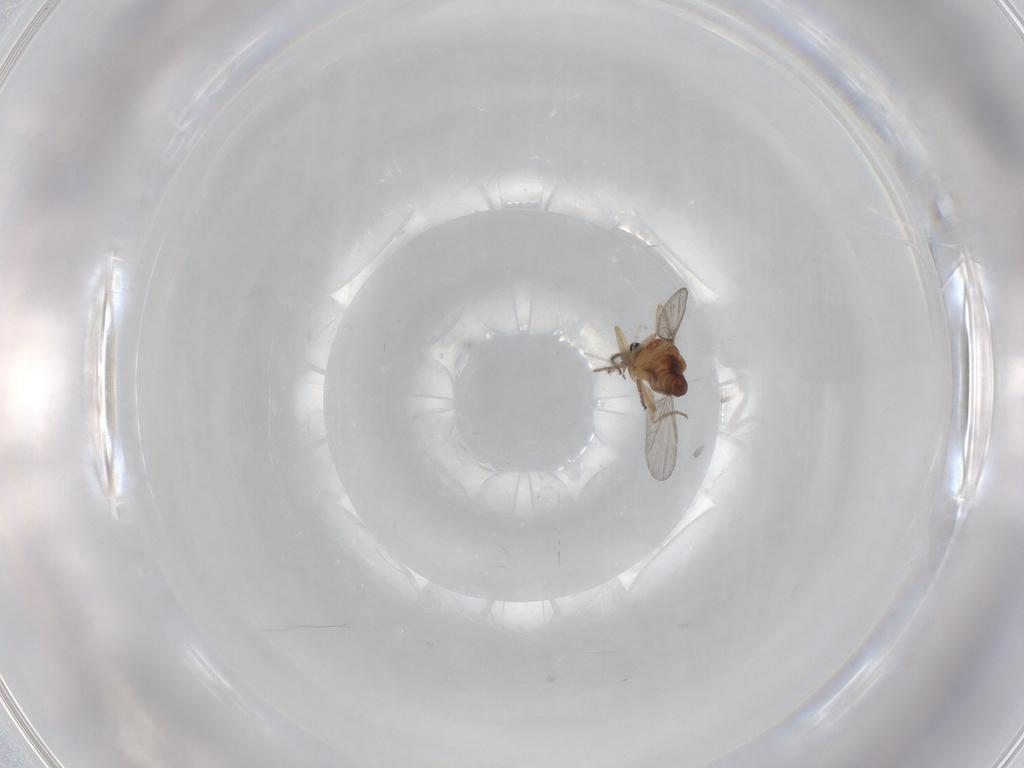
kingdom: Animalia
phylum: Arthropoda
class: Insecta
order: Diptera
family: Ceratopogonidae
